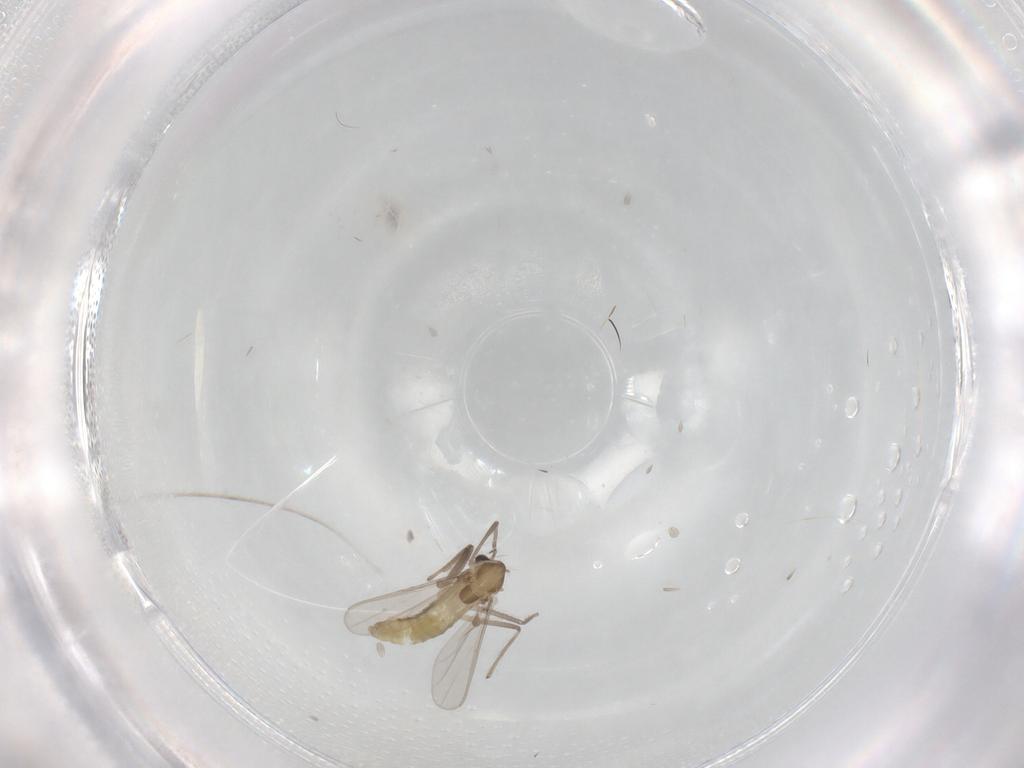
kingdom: Animalia
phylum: Arthropoda
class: Insecta
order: Diptera
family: Chironomidae
